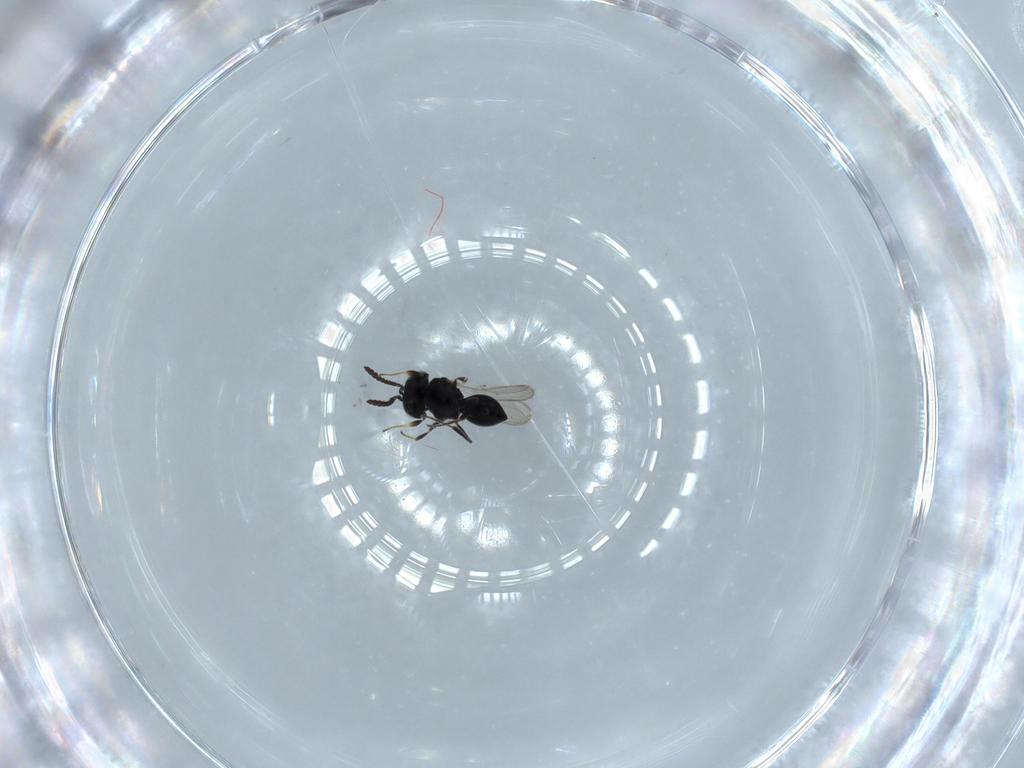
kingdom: Animalia
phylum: Arthropoda
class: Insecta
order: Hymenoptera
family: Scelionidae
